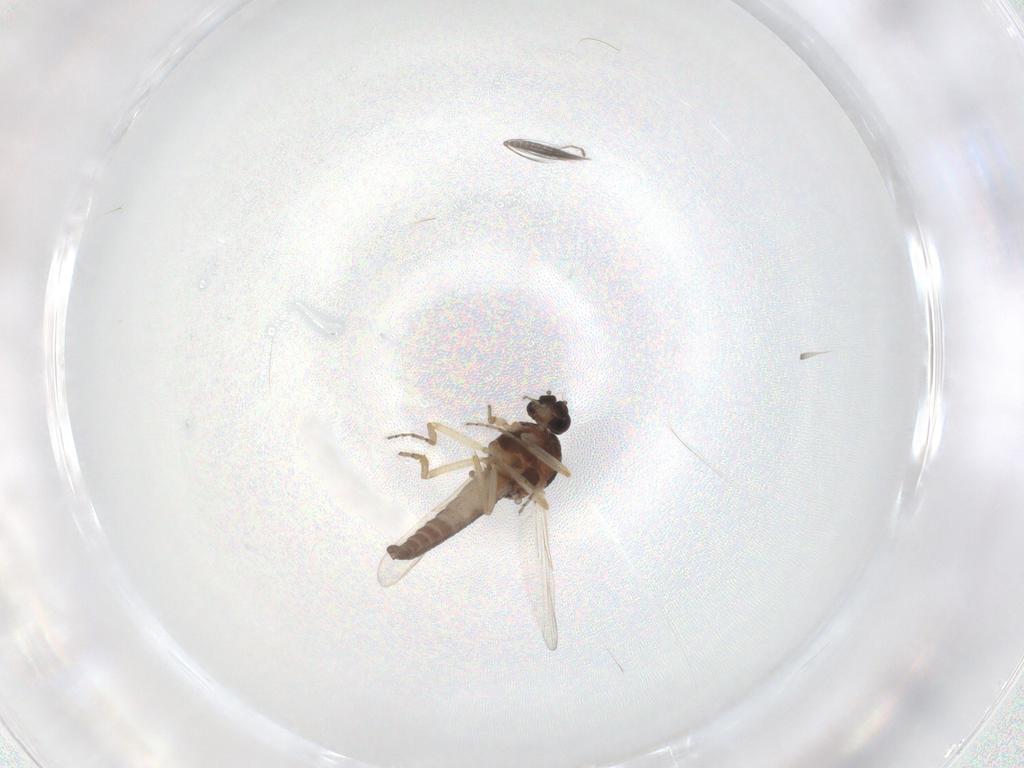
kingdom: Animalia
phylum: Arthropoda
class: Insecta
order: Diptera
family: Ceratopogonidae
